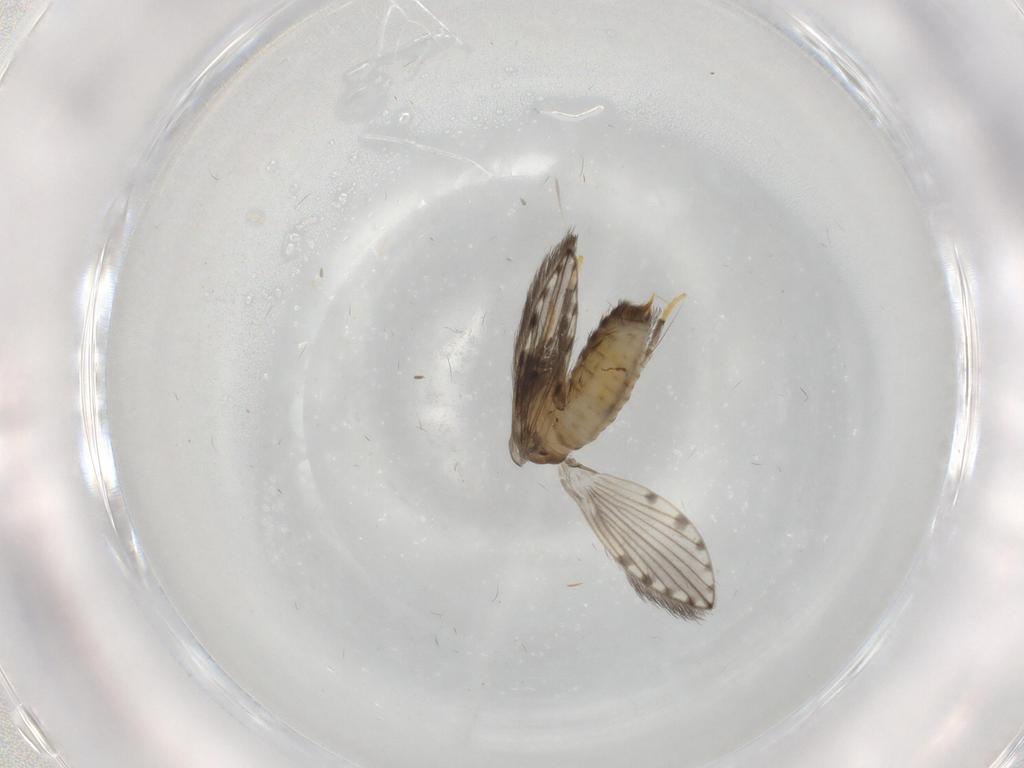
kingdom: Animalia
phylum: Arthropoda
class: Insecta
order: Diptera
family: Psychodidae
